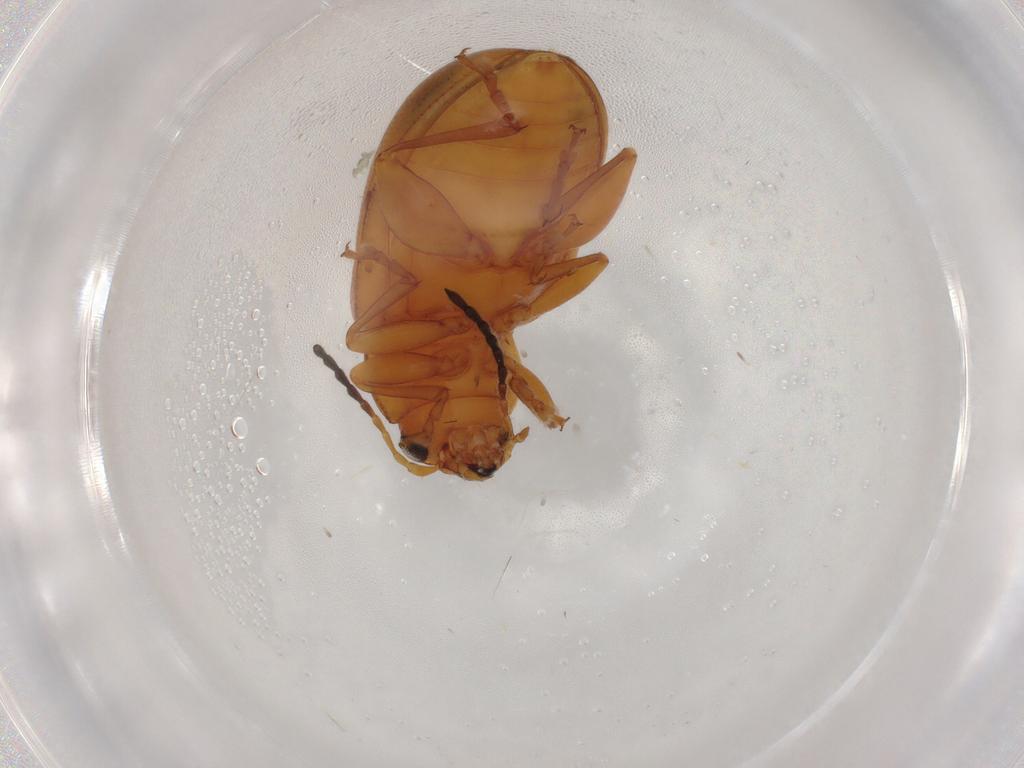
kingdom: Animalia
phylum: Arthropoda
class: Insecta
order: Coleoptera
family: Chrysomelidae
